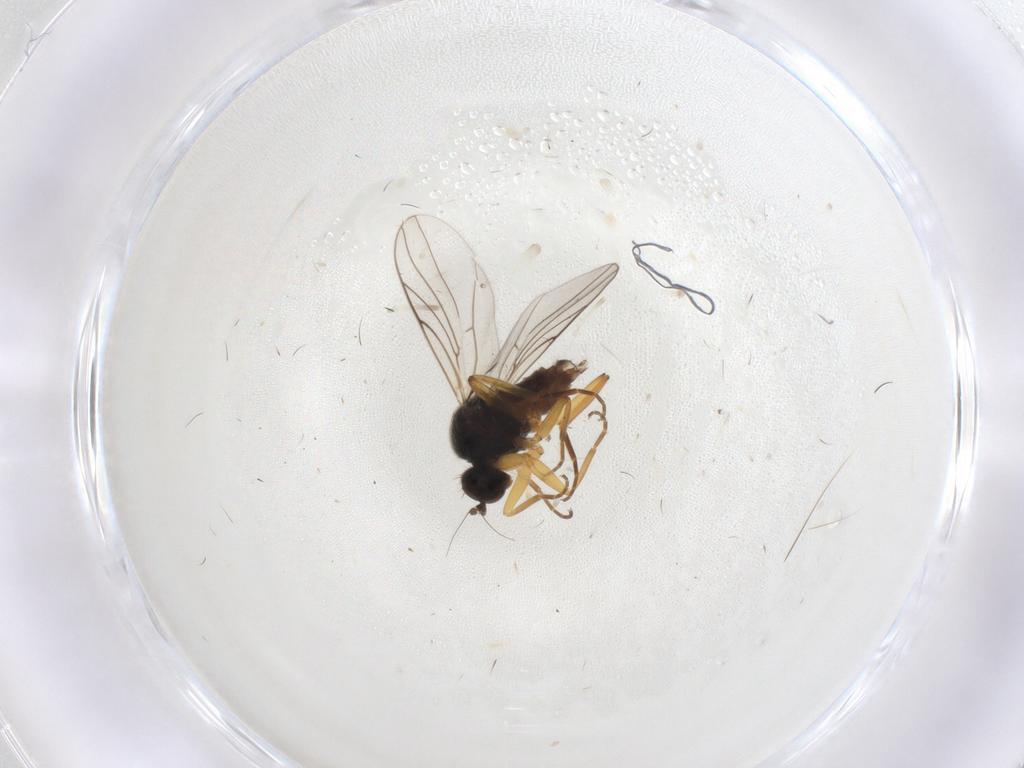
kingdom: Animalia
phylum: Arthropoda
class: Insecta
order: Diptera
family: Hybotidae
